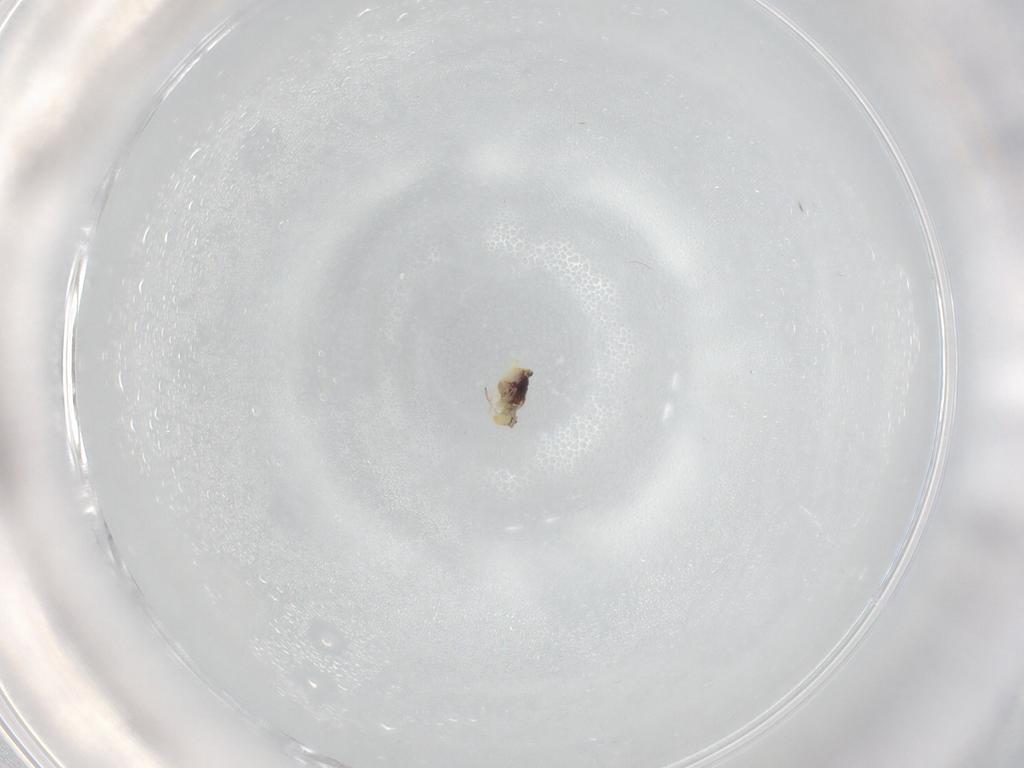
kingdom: Animalia
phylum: Arthropoda
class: Collembola
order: Symphypleona
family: Bourletiellidae
